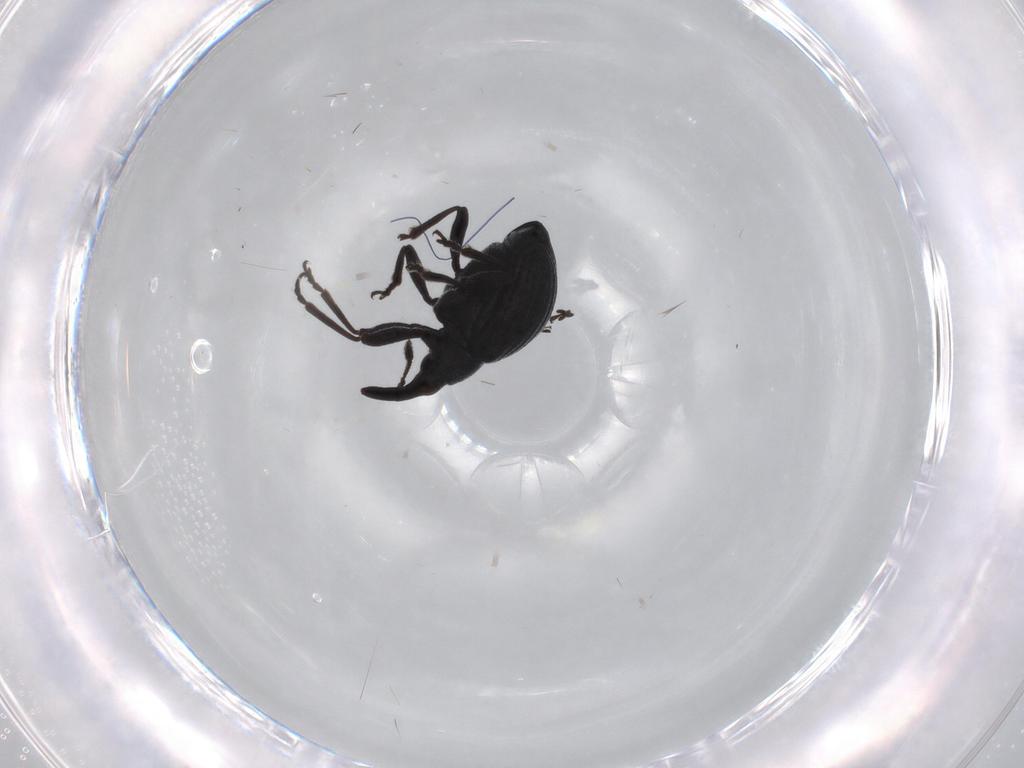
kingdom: Animalia
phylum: Arthropoda
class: Insecta
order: Coleoptera
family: Brentidae
